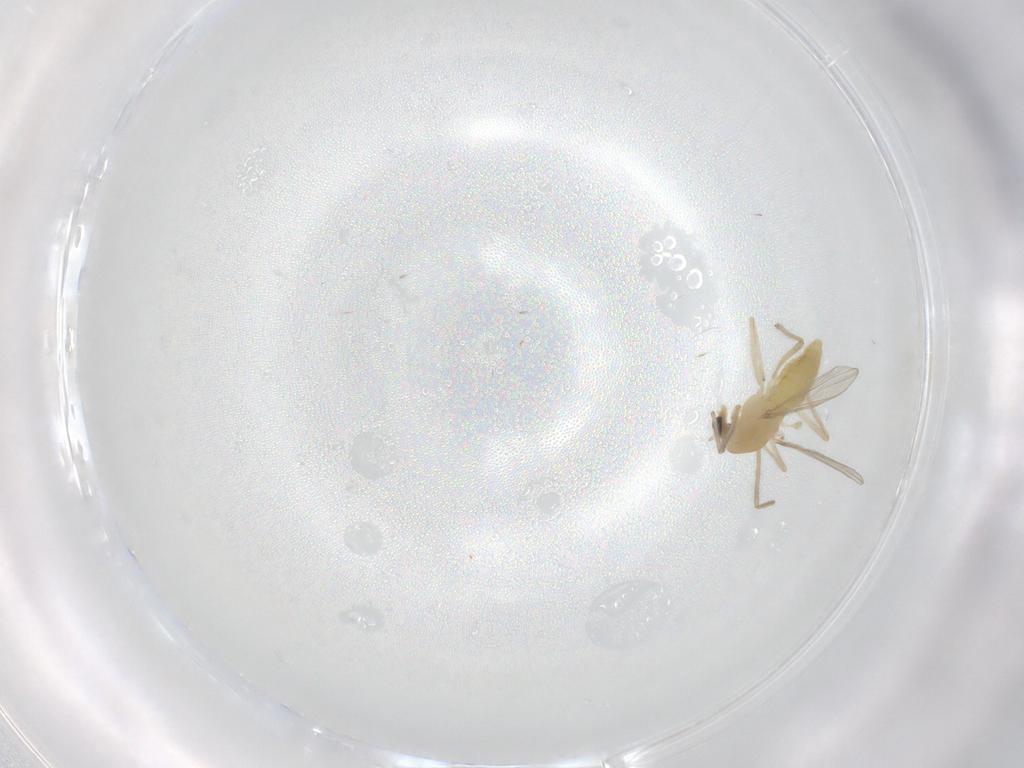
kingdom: Animalia
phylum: Arthropoda
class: Insecta
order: Diptera
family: Chironomidae
